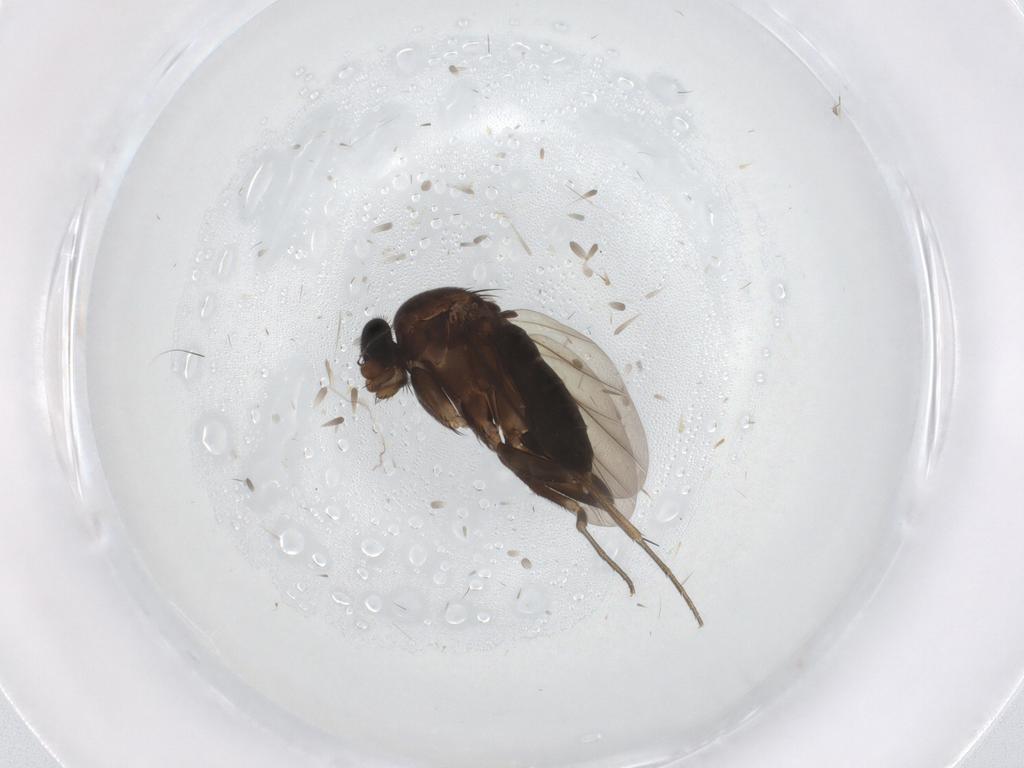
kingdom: Animalia
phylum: Arthropoda
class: Insecta
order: Diptera
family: Phoridae
